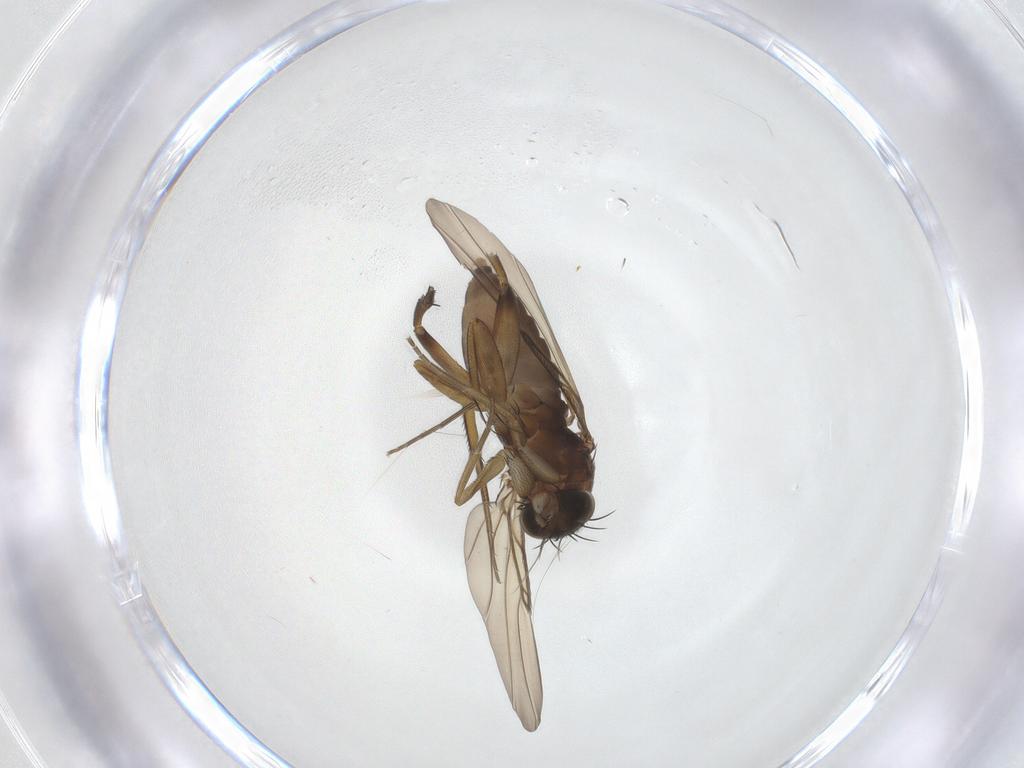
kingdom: Animalia
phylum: Arthropoda
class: Insecta
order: Diptera
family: Phoridae
